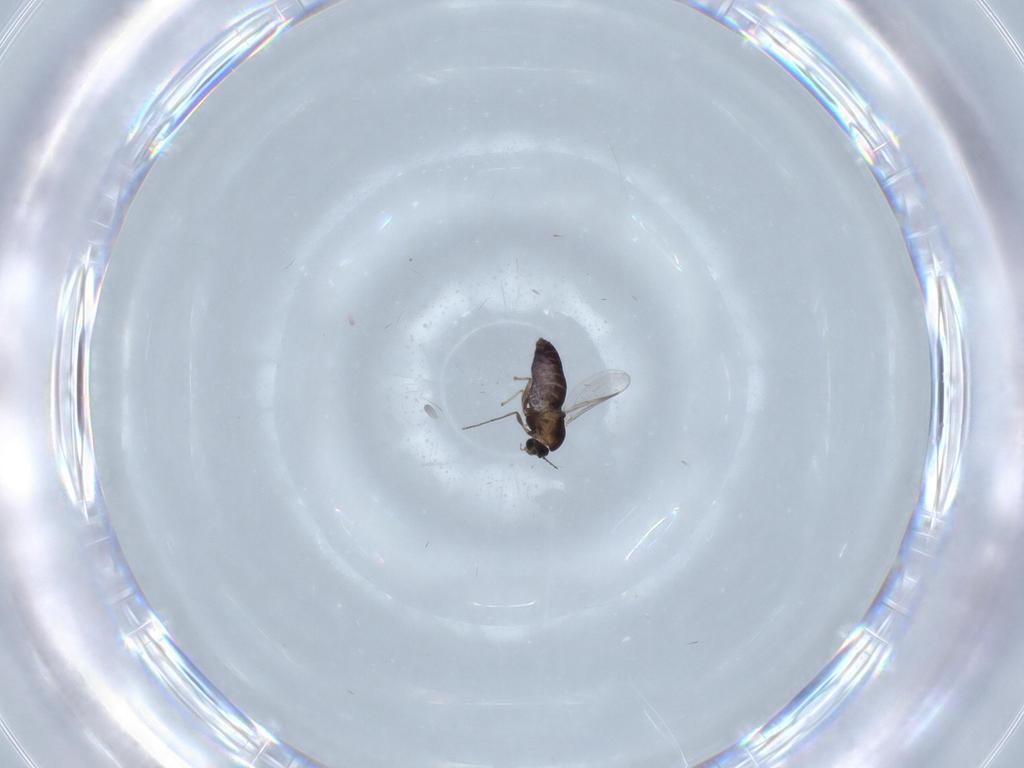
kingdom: Animalia
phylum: Arthropoda
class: Insecta
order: Diptera
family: Chironomidae
